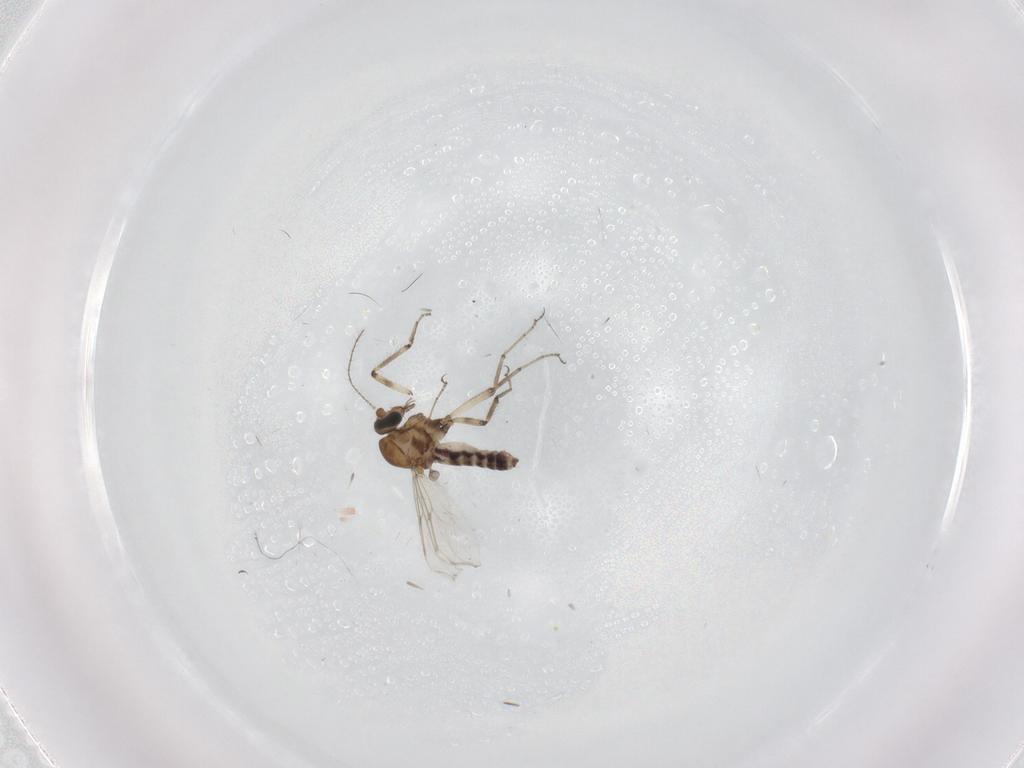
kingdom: Animalia
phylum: Arthropoda
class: Insecta
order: Diptera
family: Ceratopogonidae
